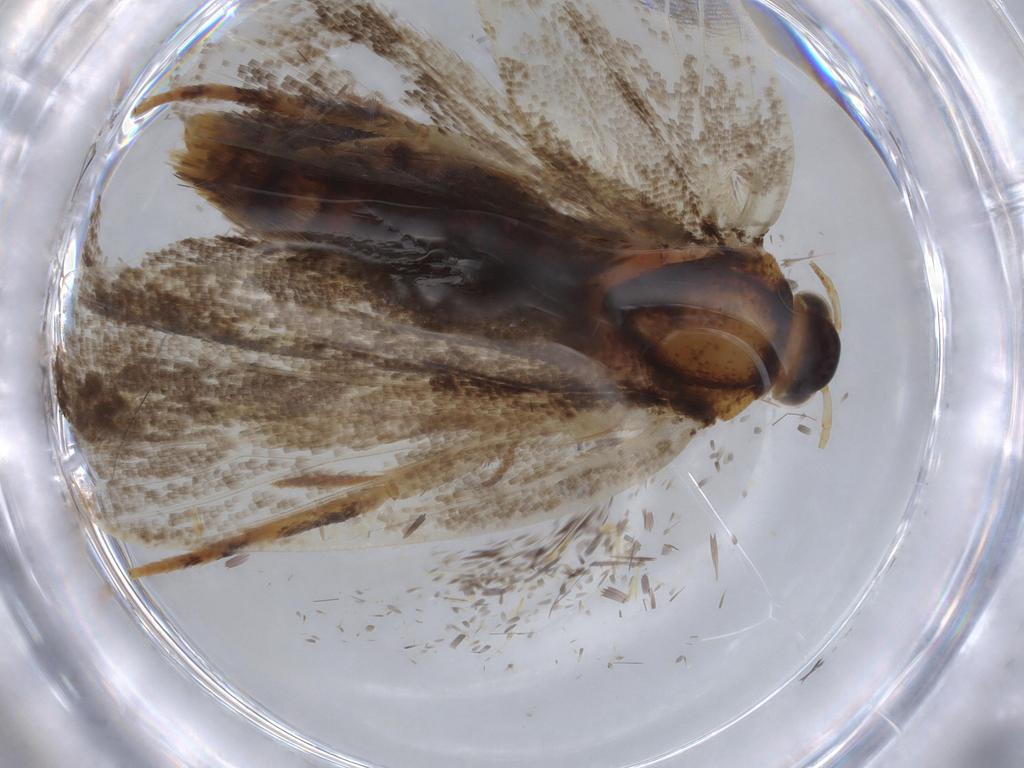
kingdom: Animalia
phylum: Arthropoda
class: Insecta
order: Lepidoptera
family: Oecophoridae
